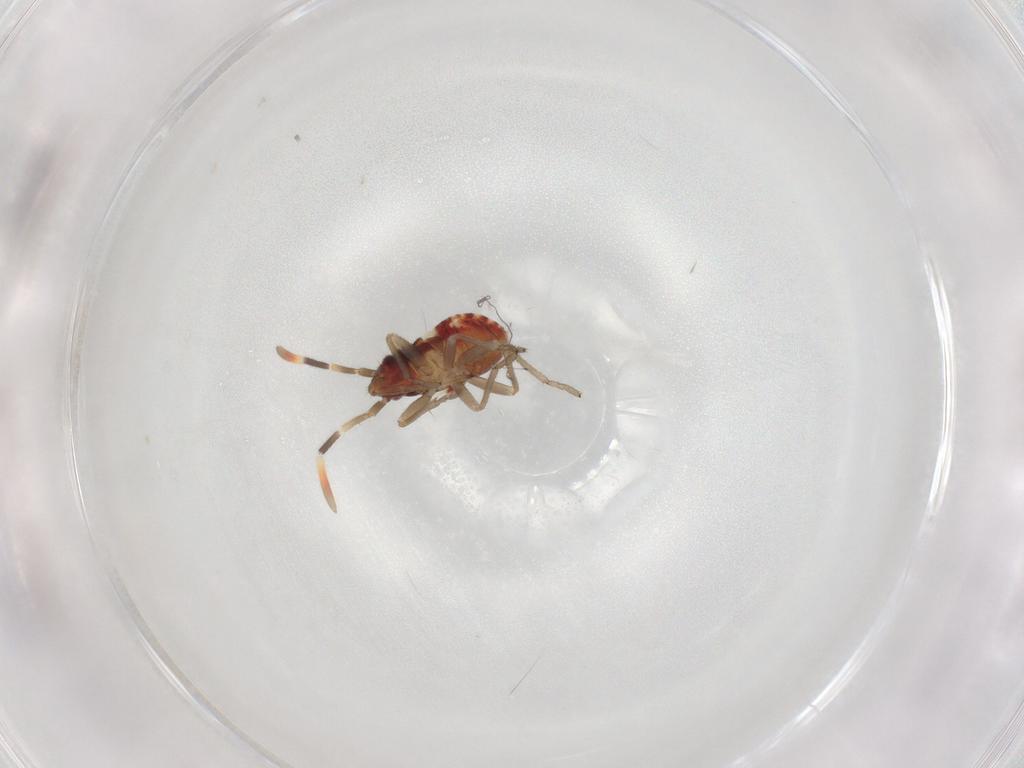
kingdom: Animalia
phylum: Arthropoda
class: Insecta
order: Hemiptera
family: Rhyparochromidae
